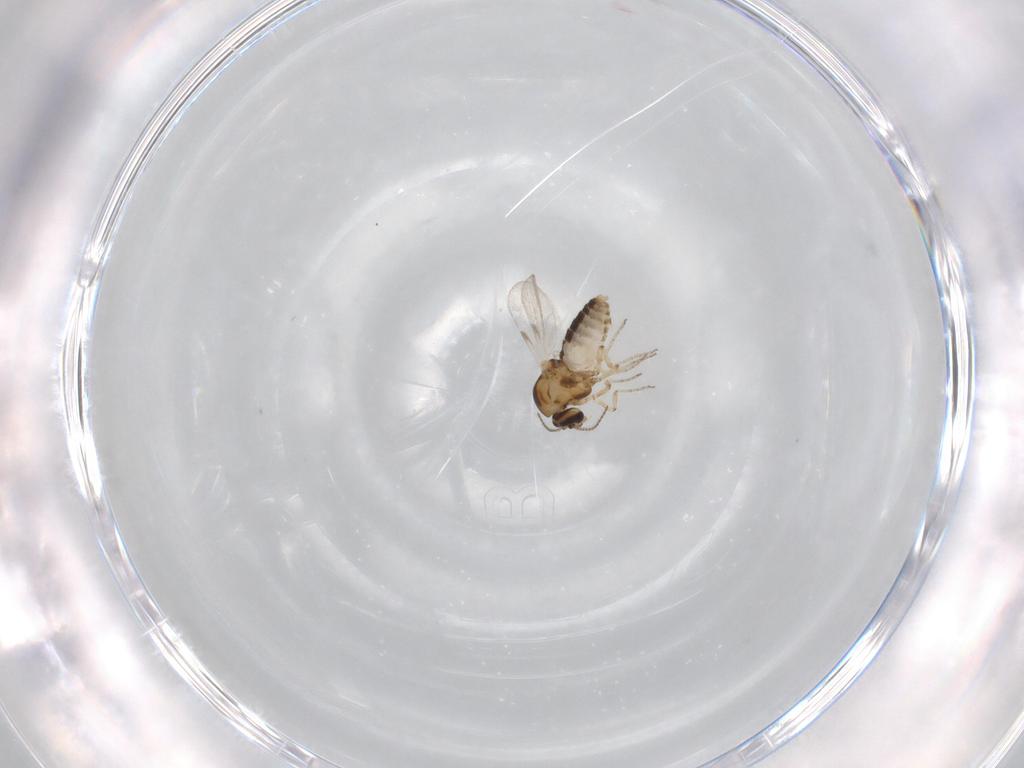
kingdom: Animalia
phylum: Arthropoda
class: Insecta
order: Diptera
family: Ceratopogonidae
